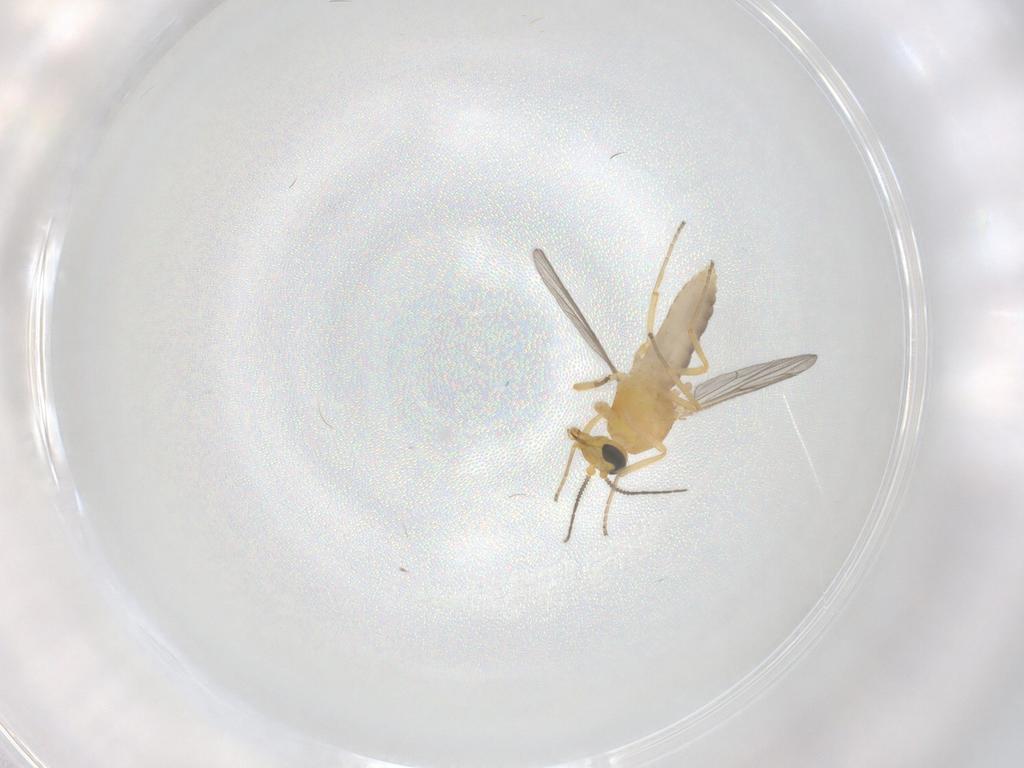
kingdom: Animalia
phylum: Arthropoda
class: Insecta
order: Diptera
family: Ceratopogonidae
